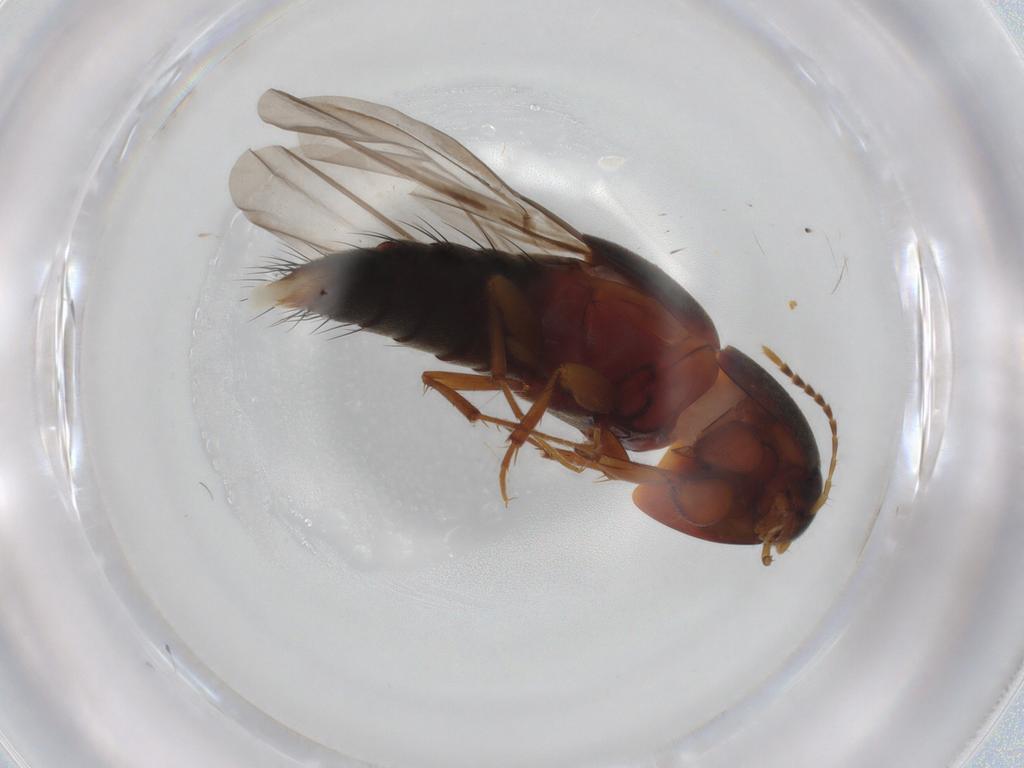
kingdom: Animalia
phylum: Arthropoda
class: Insecta
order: Coleoptera
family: Staphylinidae
